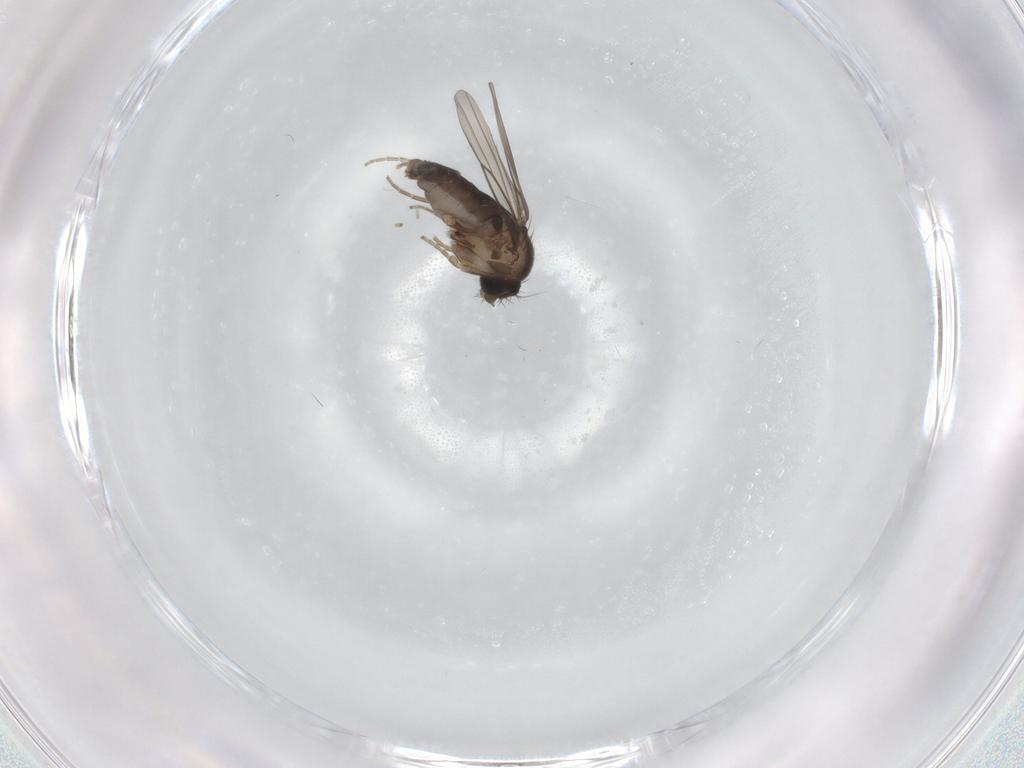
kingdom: Animalia
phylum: Arthropoda
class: Insecta
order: Diptera
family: Phoridae
